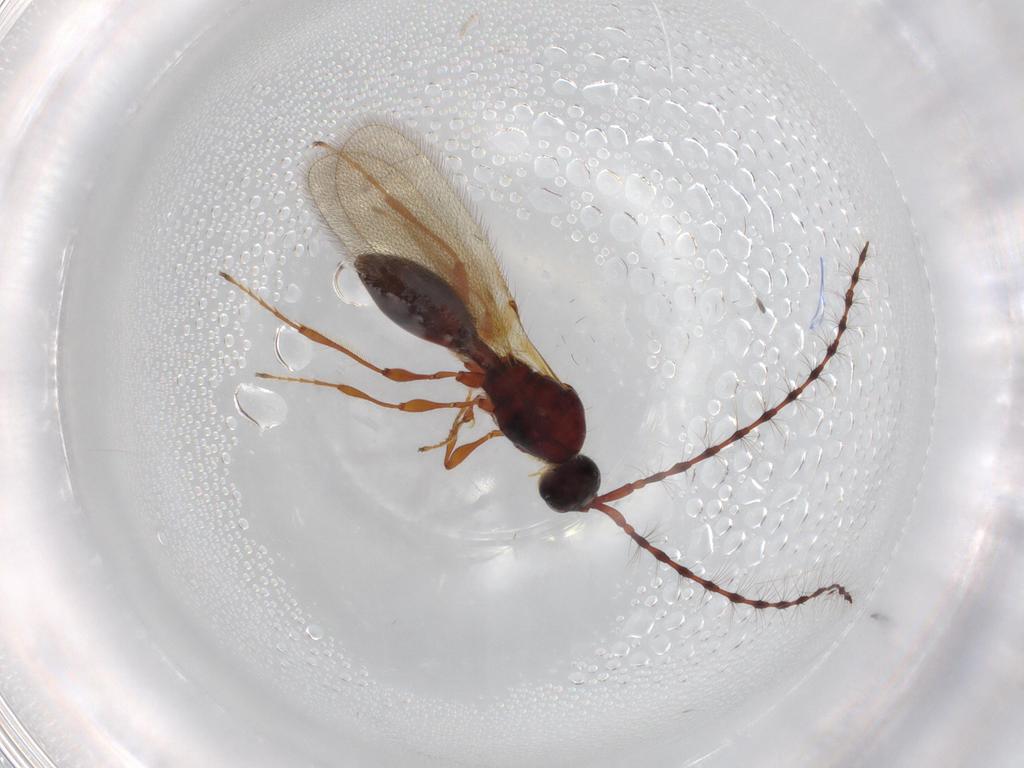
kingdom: Animalia
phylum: Arthropoda
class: Insecta
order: Hymenoptera
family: Diapriidae
